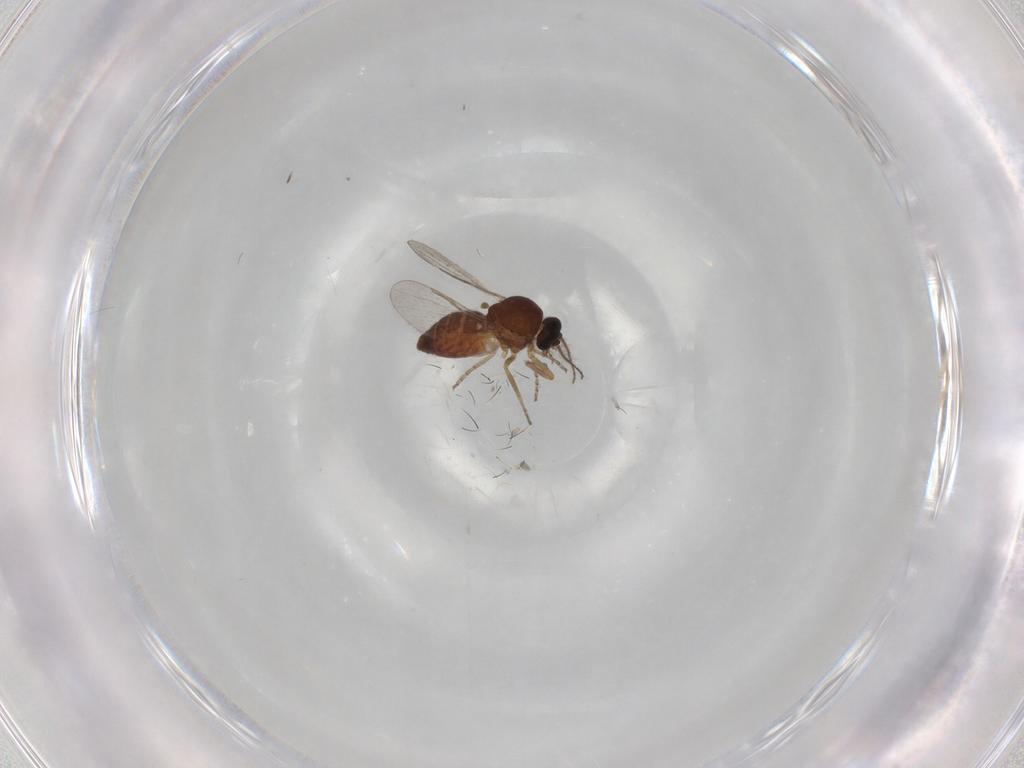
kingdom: Animalia
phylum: Arthropoda
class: Insecta
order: Diptera
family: Ceratopogonidae
